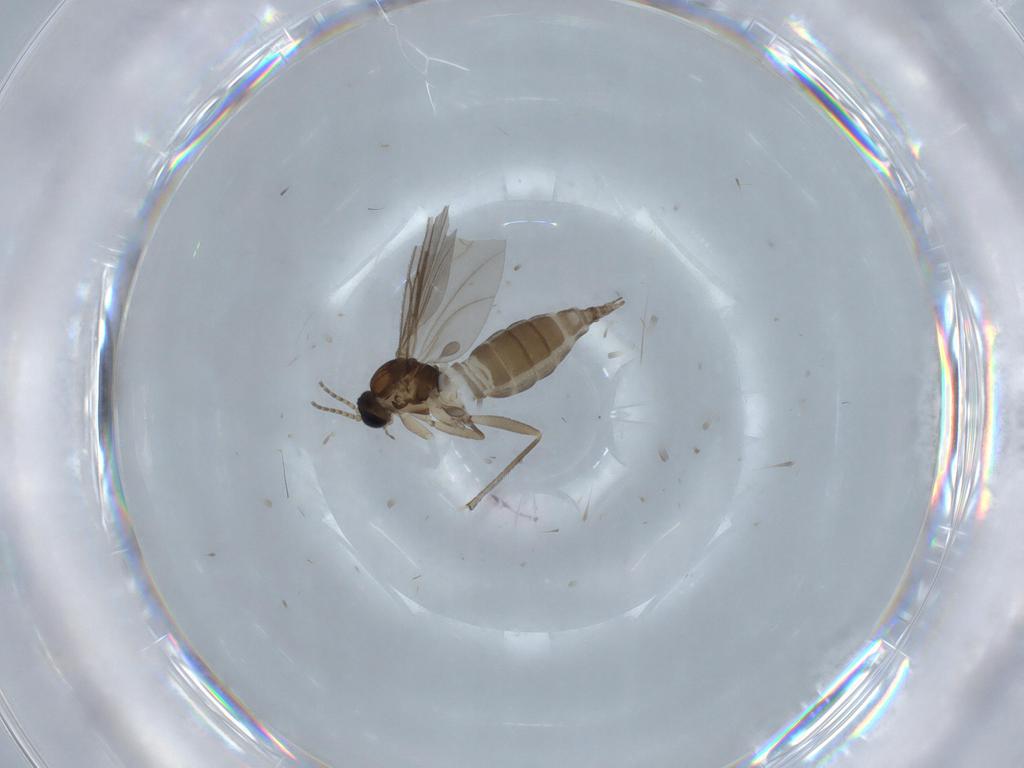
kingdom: Animalia
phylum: Arthropoda
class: Insecta
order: Diptera
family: Sciaridae
